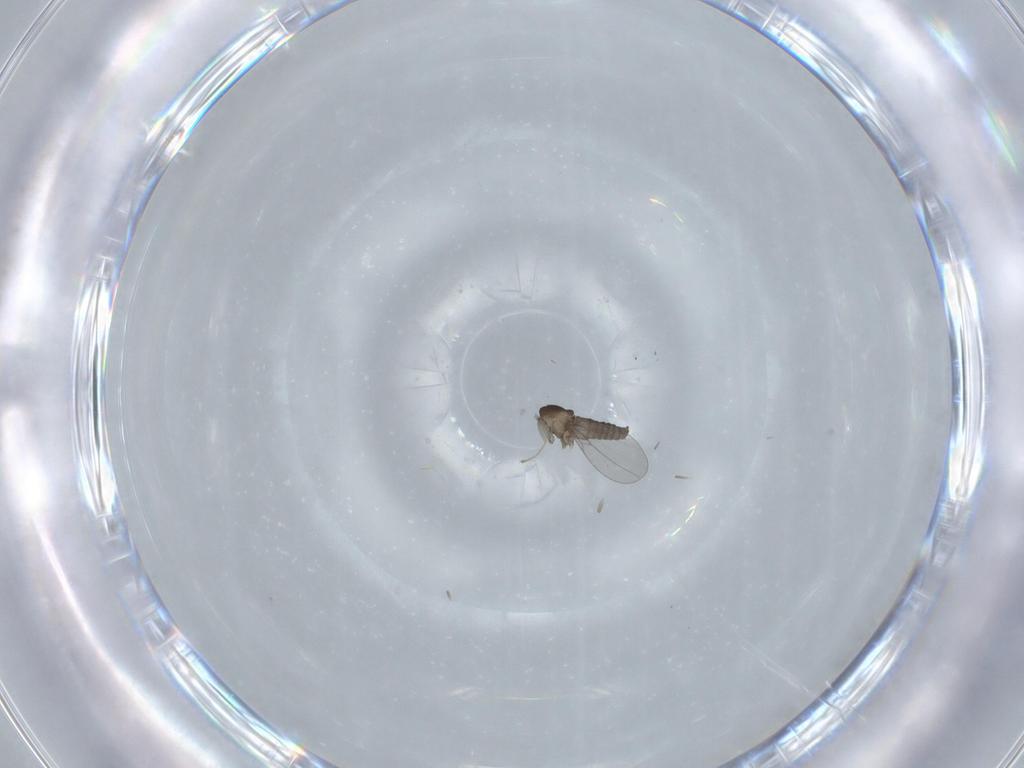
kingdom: Animalia
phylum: Arthropoda
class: Insecta
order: Diptera
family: Cecidomyiidae
